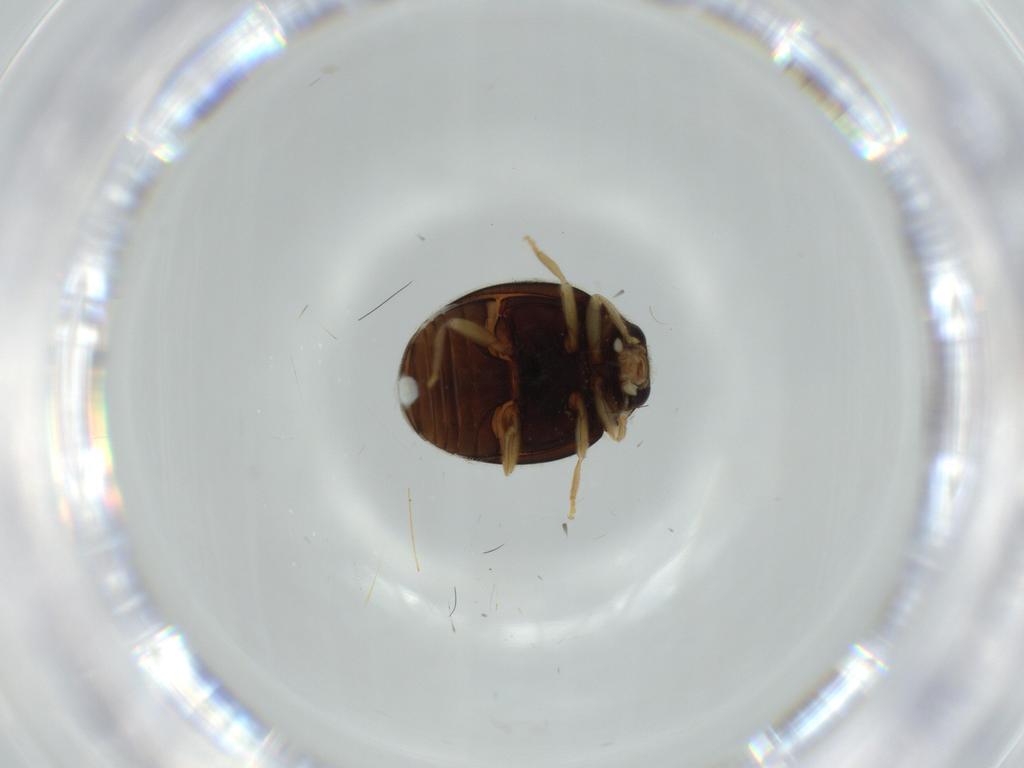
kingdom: Animalia
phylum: Arthropoda
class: Insecta
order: Coleoptera
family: Coccinellidae
